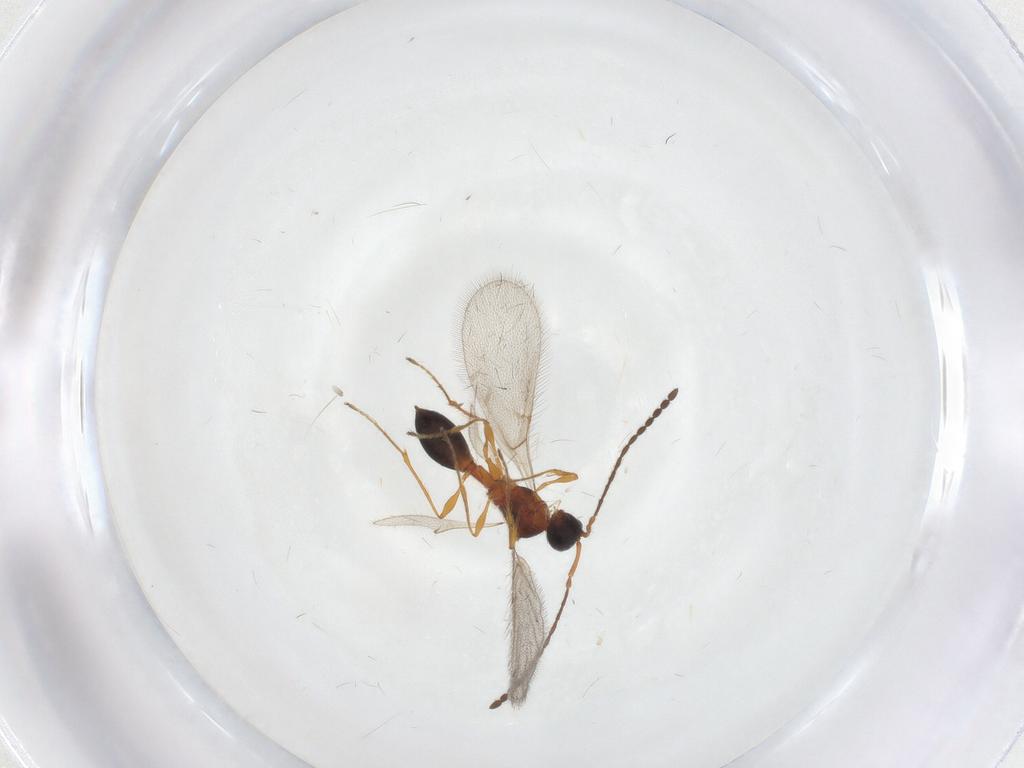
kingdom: Animalia
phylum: Arthropoda
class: Insecta
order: Hymenoptera
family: Diapriidae
